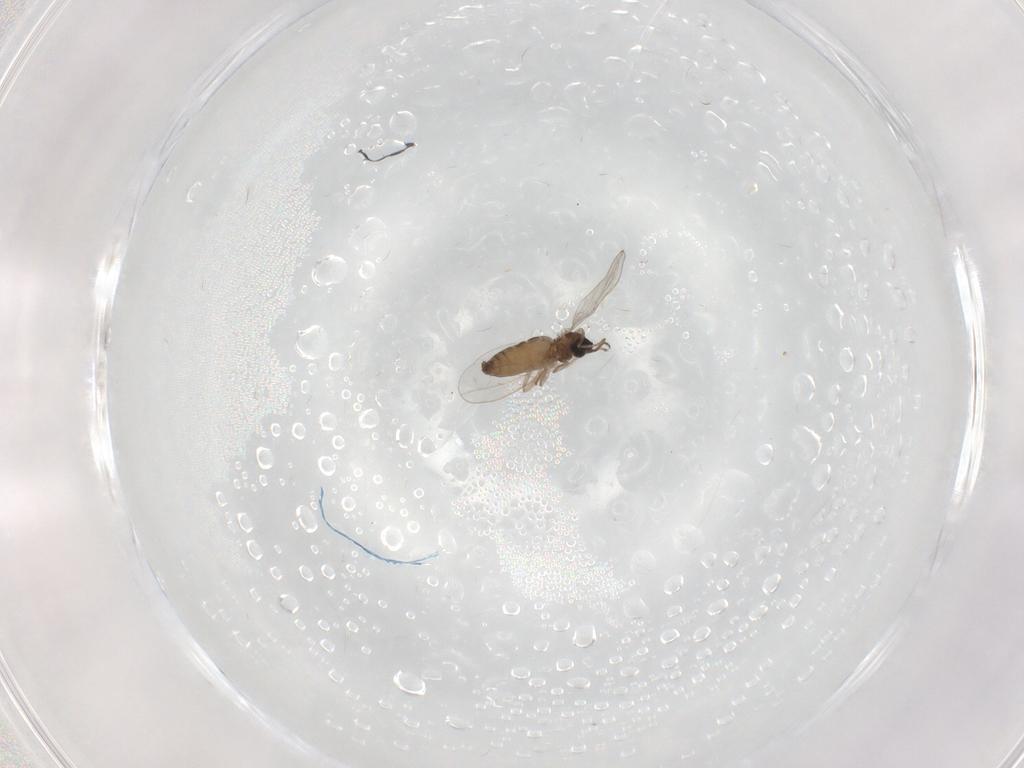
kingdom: Animalia
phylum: Arthropoda
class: Insecta
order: Diptera
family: Cecidomyiidae
